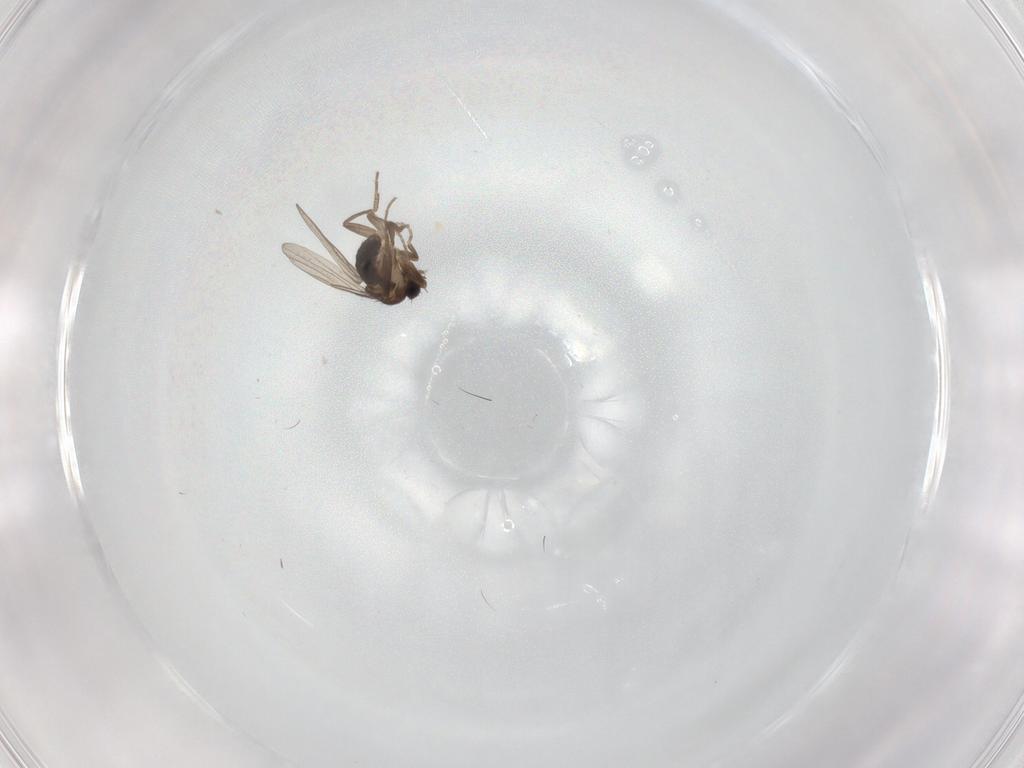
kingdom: Animalia
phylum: Arthropoda
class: Insecta
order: Diptera
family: Phoridae
